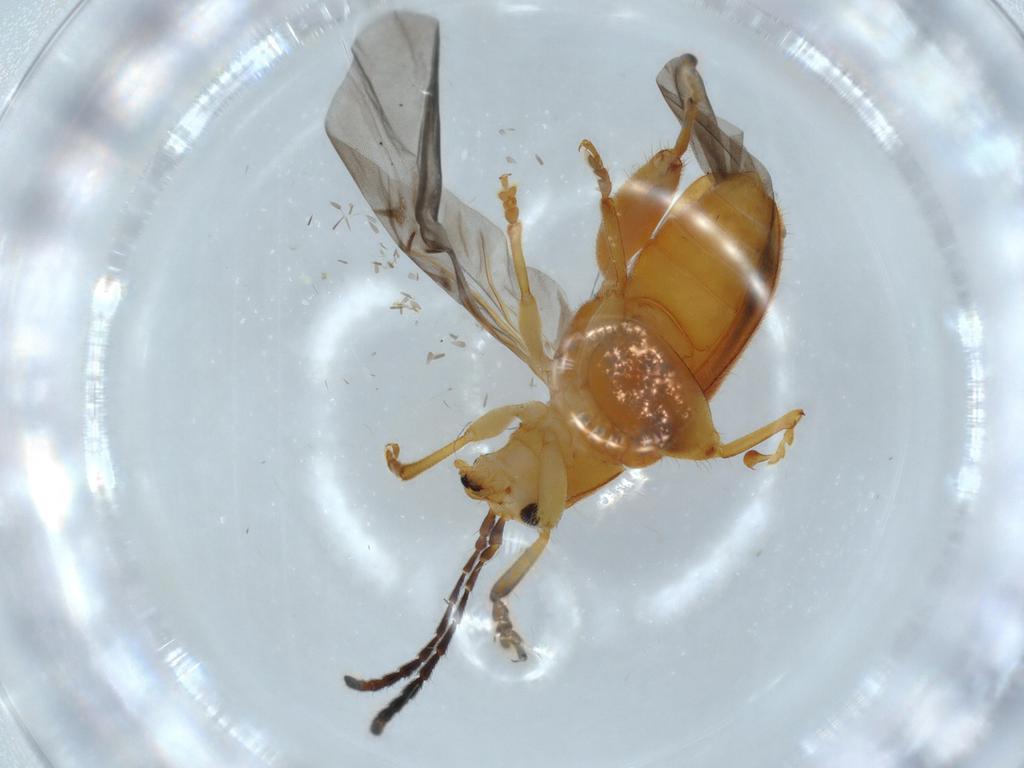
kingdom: Animalia
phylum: Arthropoda
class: Insecta
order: Coleoptera
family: Chrysomelidae
